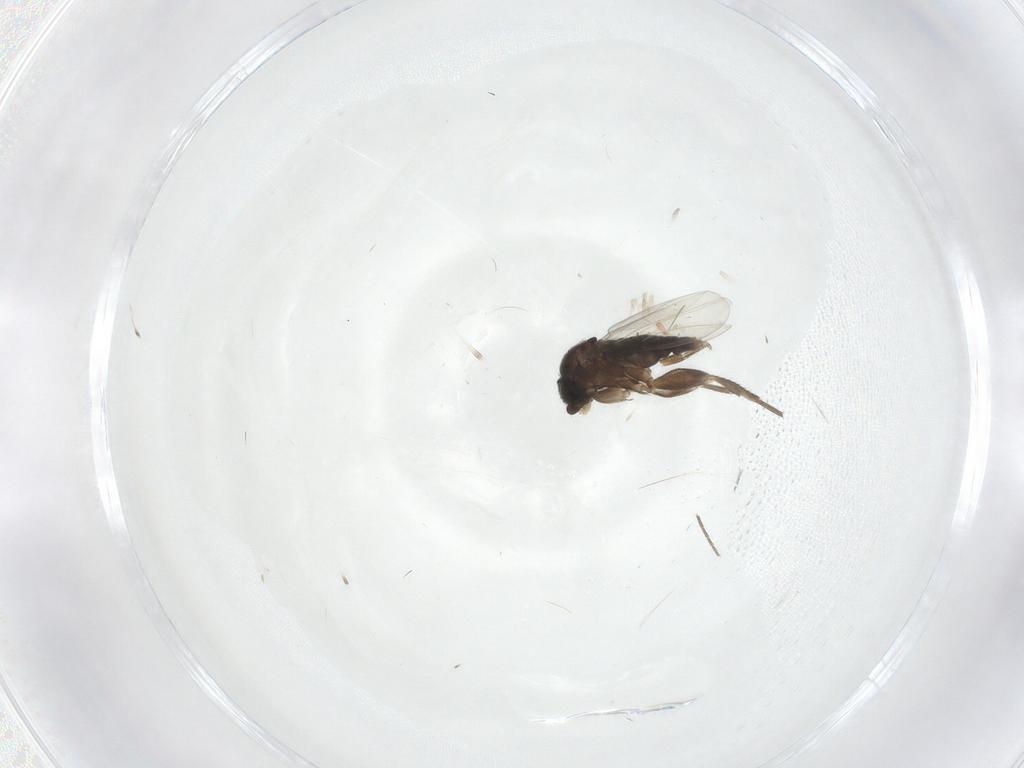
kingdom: Animalia
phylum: Arthropoda
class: Insecta
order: Diptera
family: Phoridae
